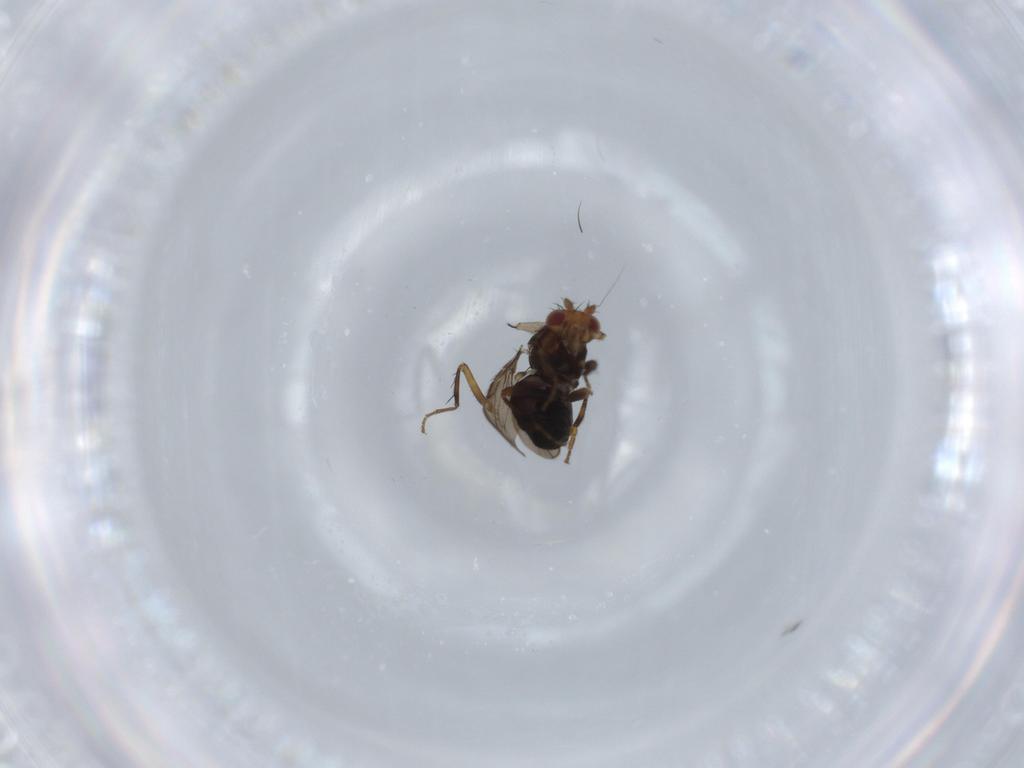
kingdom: Animalia
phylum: Arthropoda
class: Insecta
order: Diptera
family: Sciaridae
